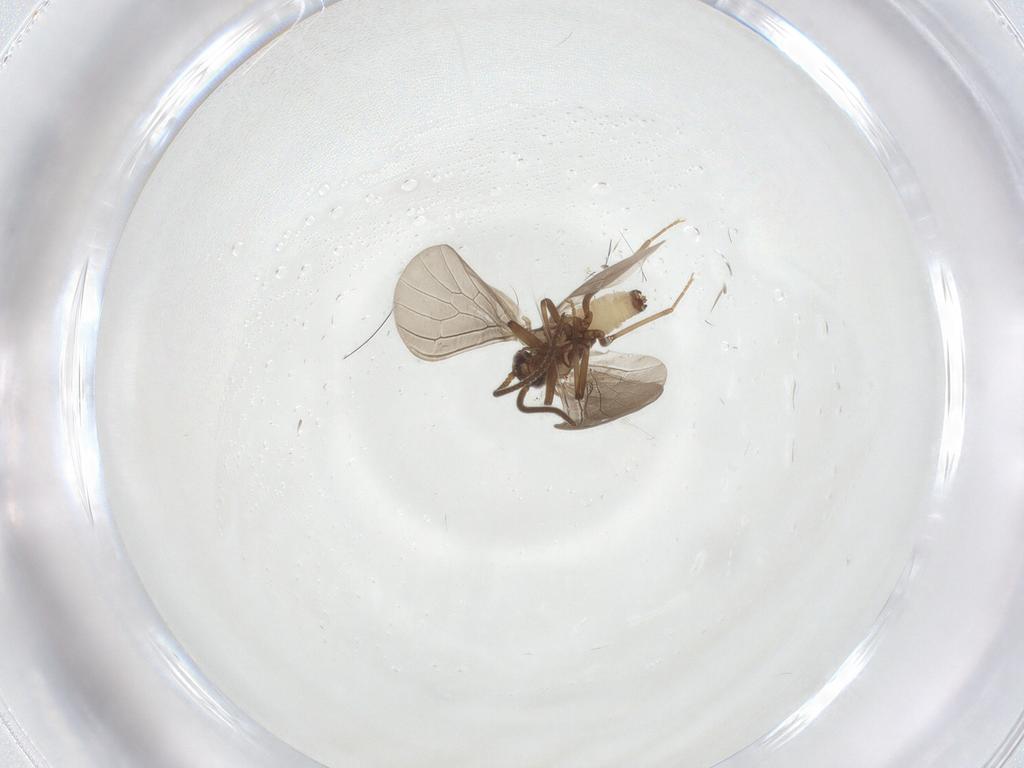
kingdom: Animalia
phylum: Arthropoda
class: Insecta
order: Neuroptera
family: Coniopterygidae
